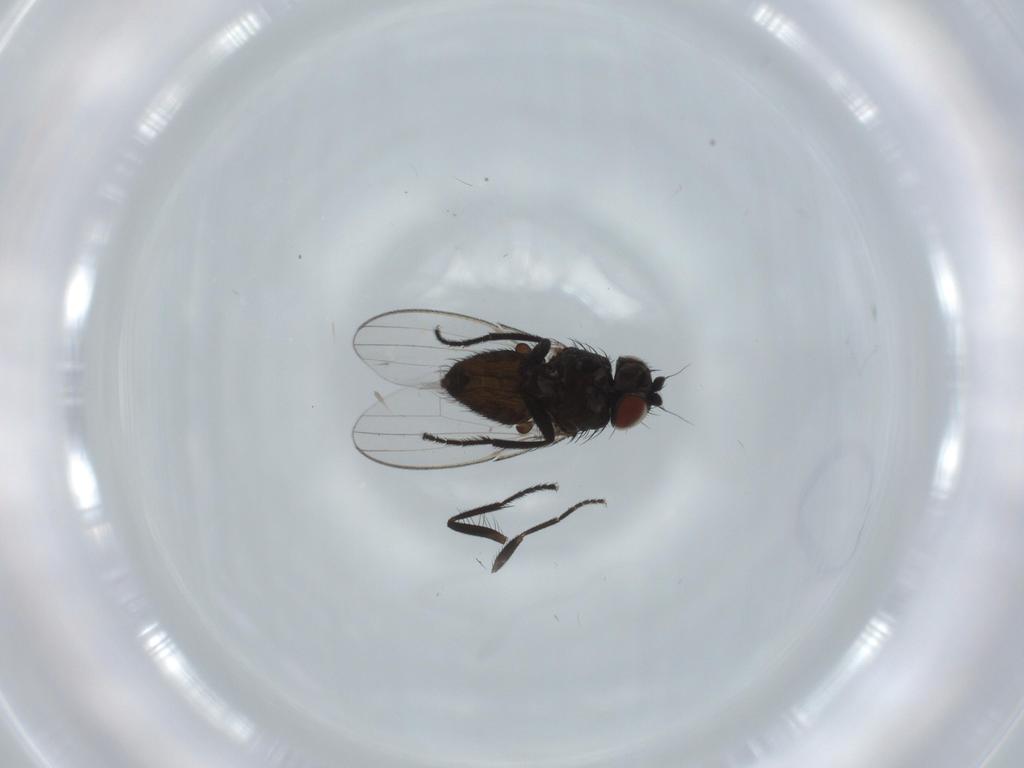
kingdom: Animalia
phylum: Arthropoda
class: Insecta
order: Diptera
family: Milichiidae
